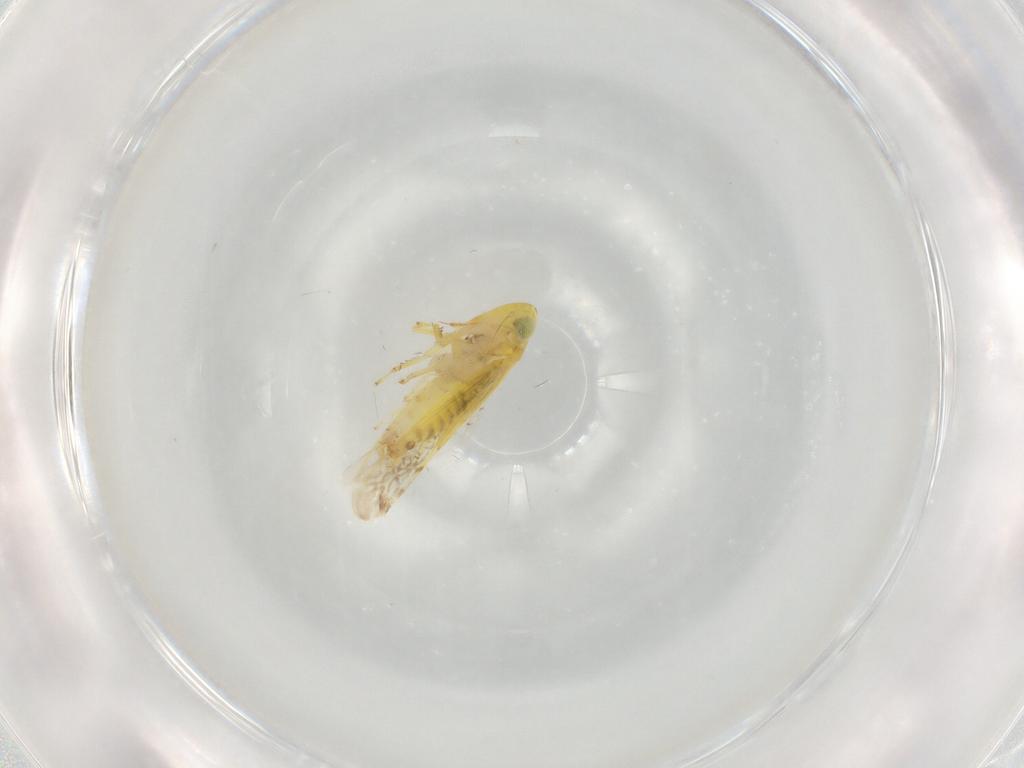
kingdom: Animalia
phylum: Arthropoda
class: Insecta
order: Hemiptera
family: Cicadellidae
